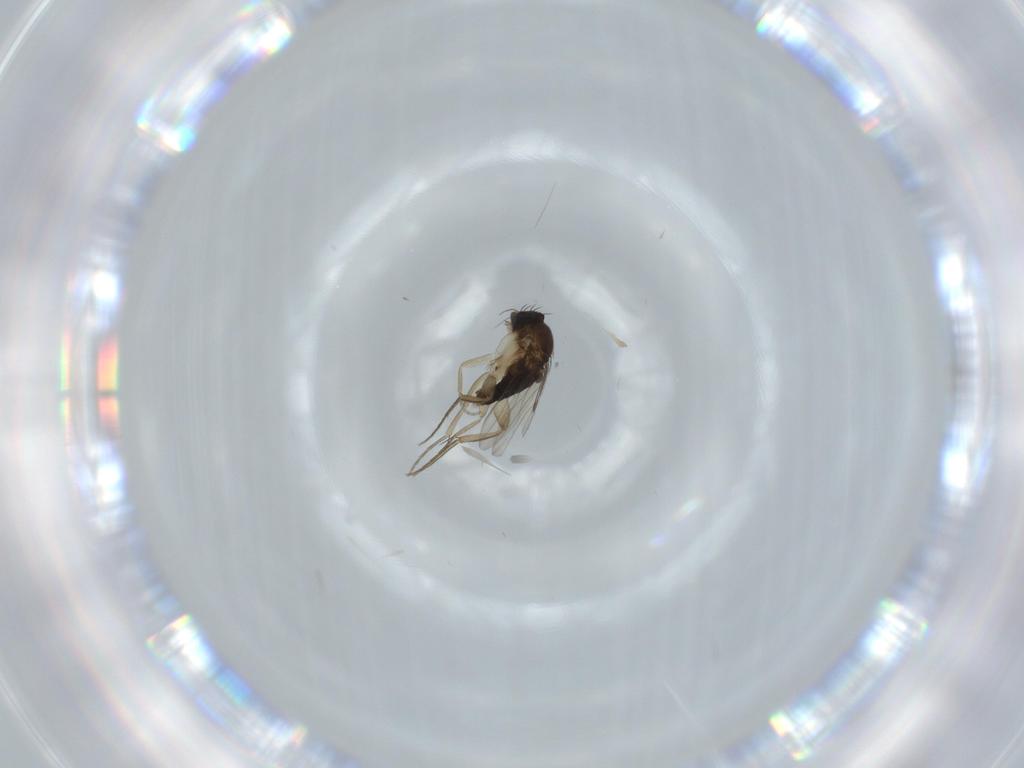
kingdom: Animalia
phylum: Arthropoda
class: Insecta
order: Diptera
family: Phoridae
